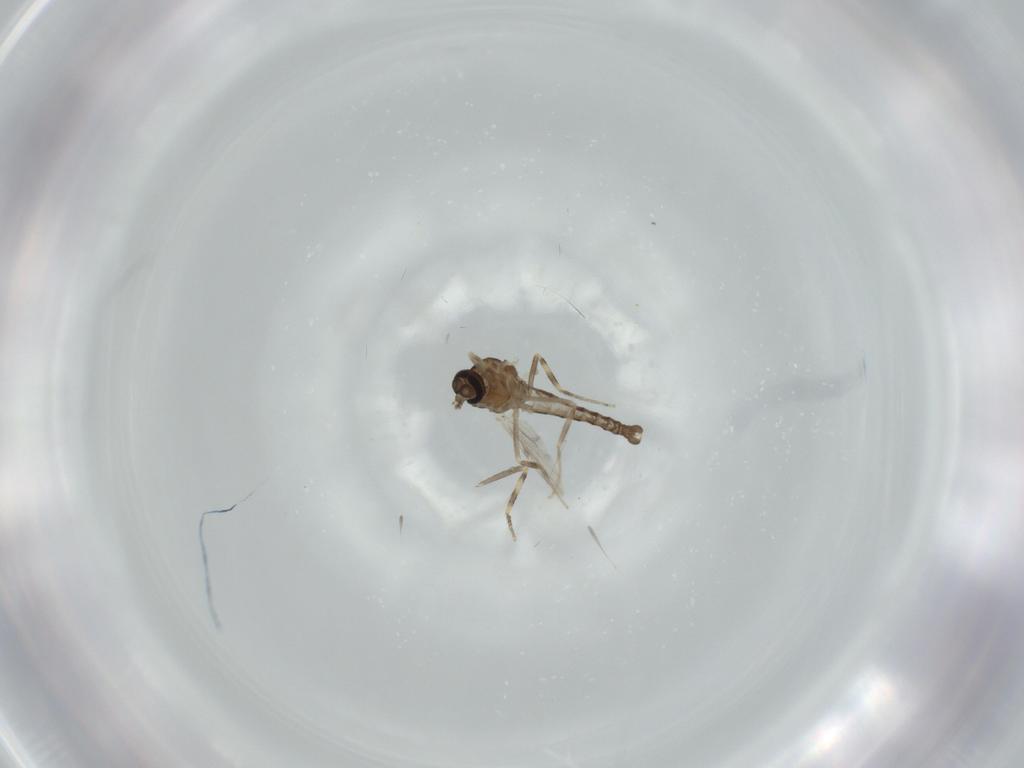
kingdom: Animalia
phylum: Arthropoda
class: Insecta
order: Diptera
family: Ceratopogonidae
